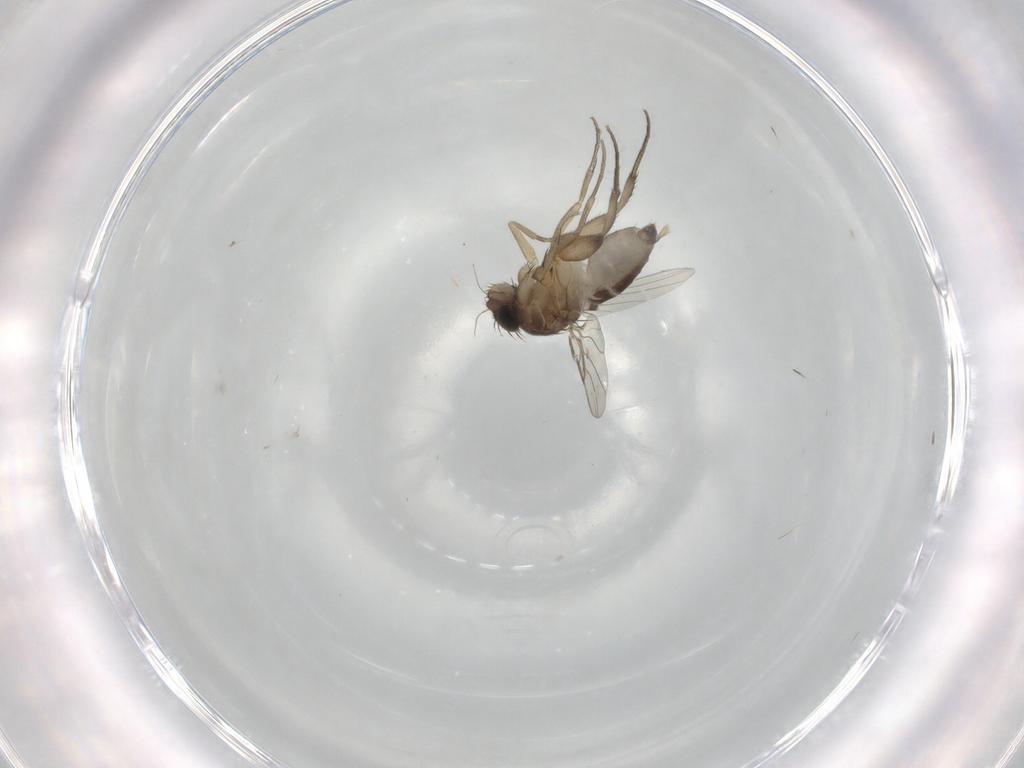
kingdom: Animalia
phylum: Arthropoda
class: Insecta
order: Diptera
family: Phoridae
